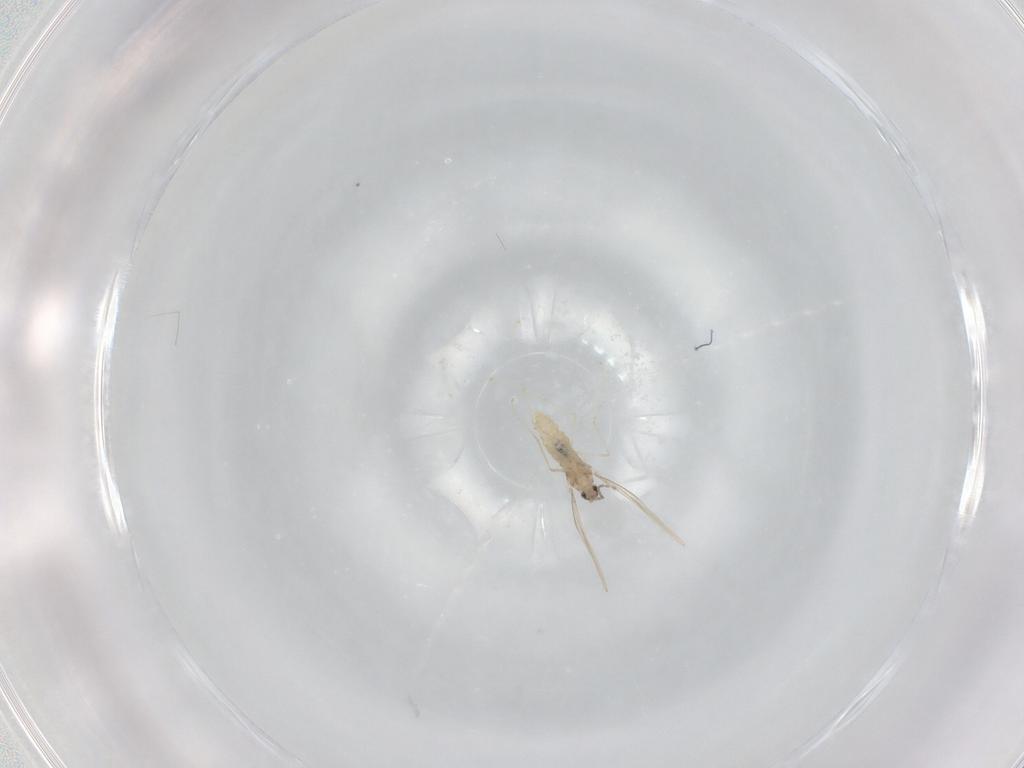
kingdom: Animalia
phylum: Arthropoda
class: Insecta
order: Diptera
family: Cecidomyiidae
